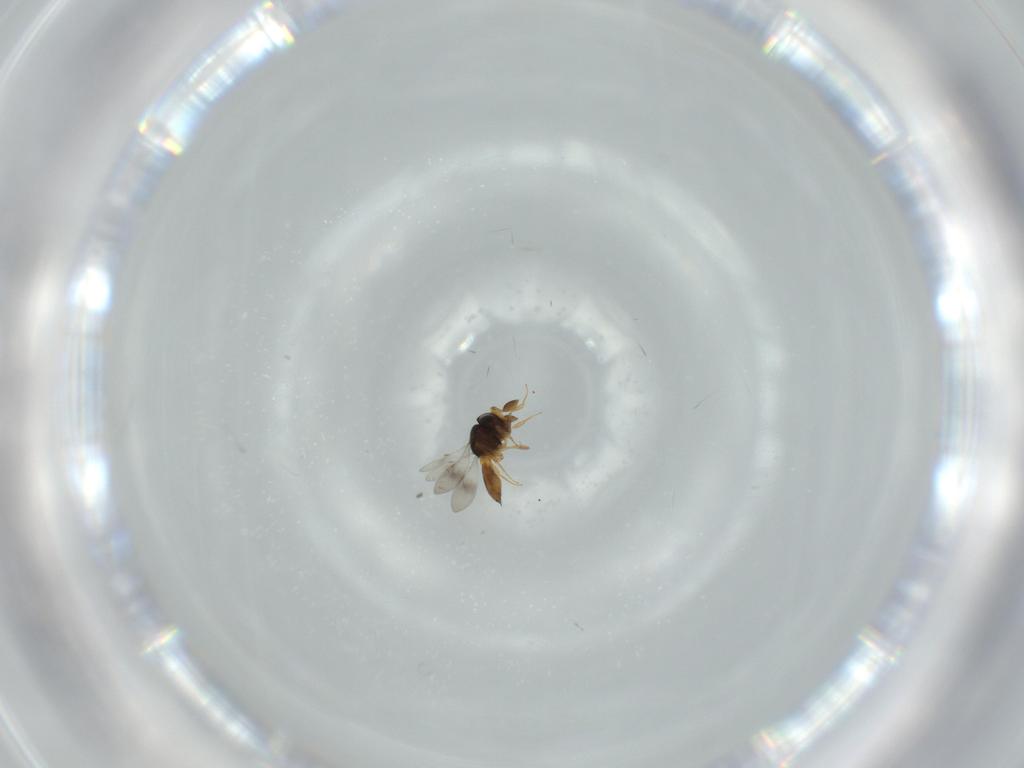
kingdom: Animalia
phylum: Arthropoda
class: Insecta
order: Hymenoptera
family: Scelionidae
